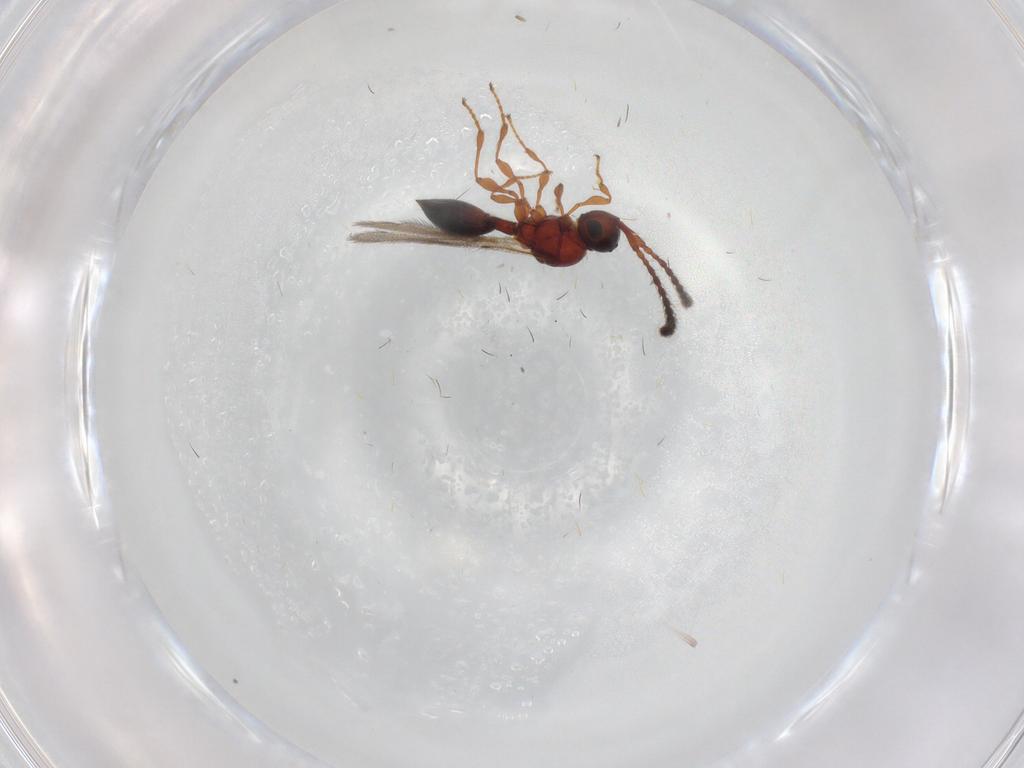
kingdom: Animalia
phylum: Arthropoda
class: Insecta
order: Hymenoptera
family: Diapriidae
